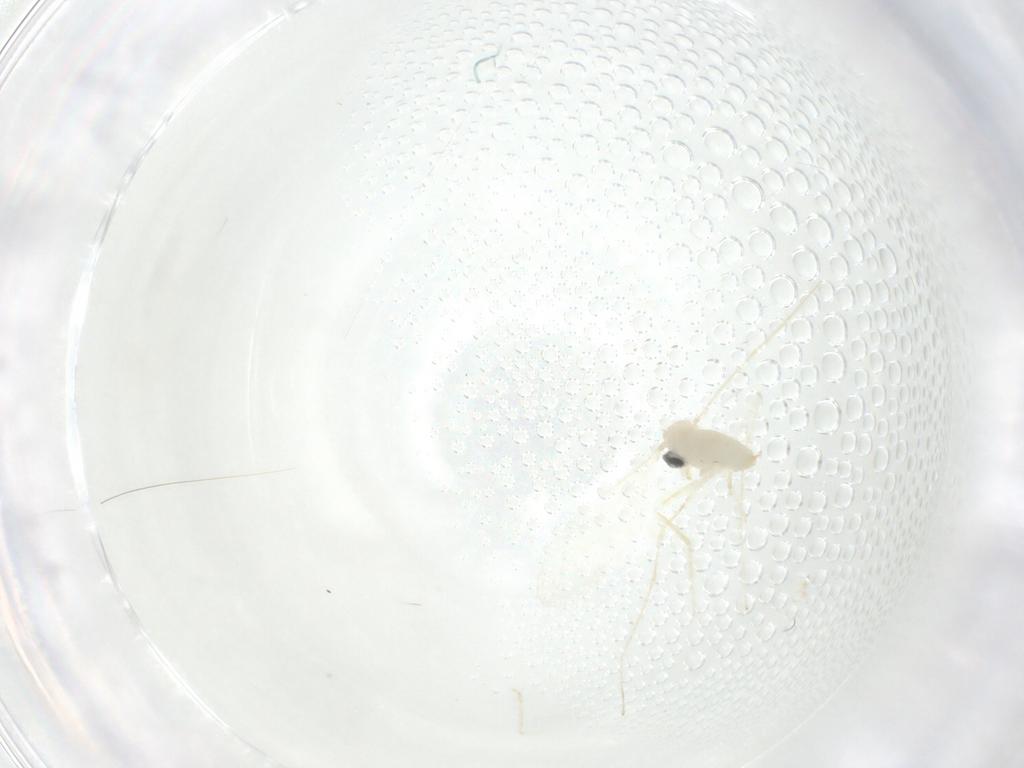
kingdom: Animalia
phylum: Arthropoda
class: Insecta
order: Diptera
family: Cecidomyiidae
